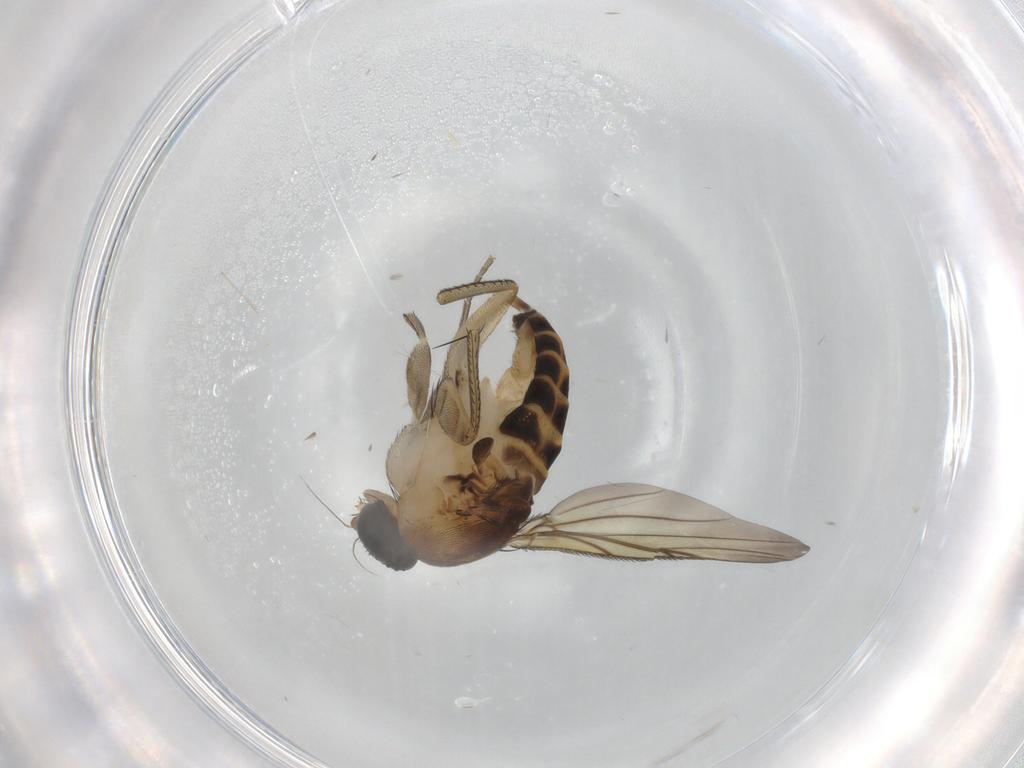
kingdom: Animalia
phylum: Arthropoda
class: Insecta
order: Diptera
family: Phoridae
